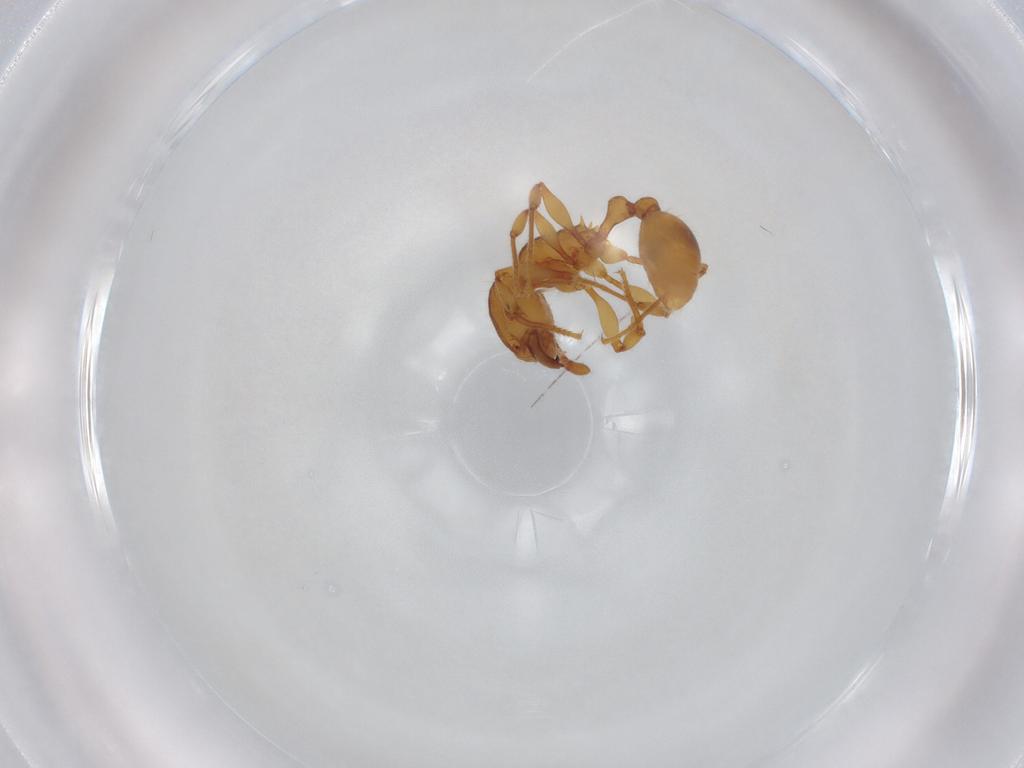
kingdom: Animalia
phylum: Arthropoda
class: Insecta
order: Hymenoptera
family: Formicidae
